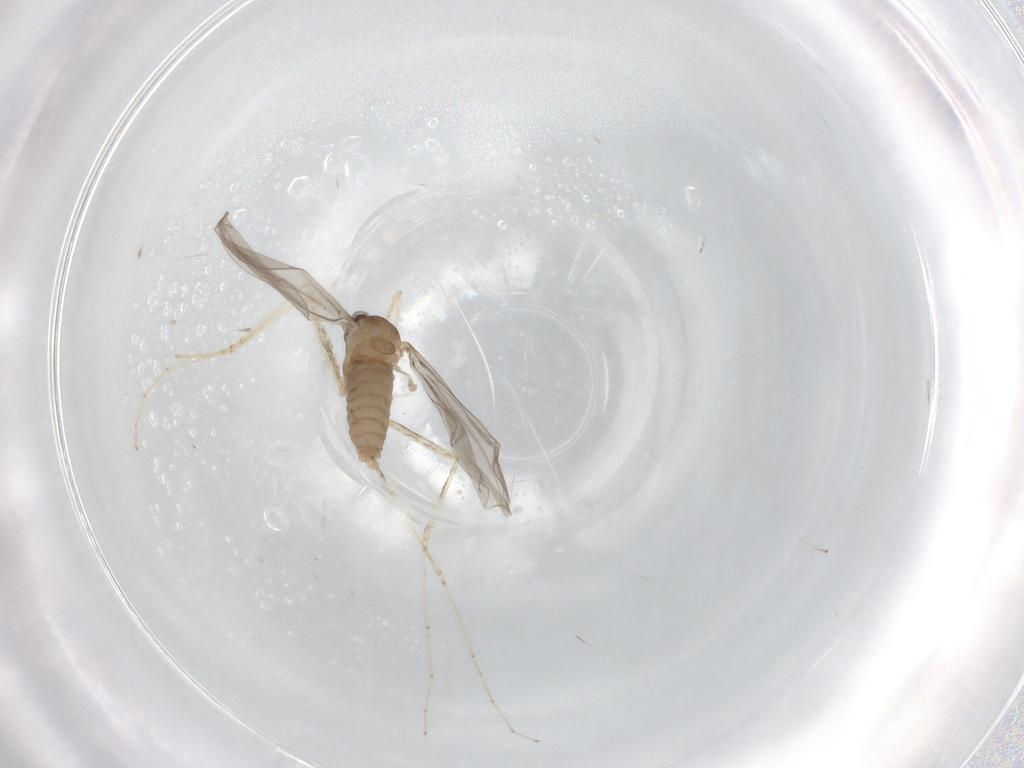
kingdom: Animalia
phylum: Arthropoda
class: Insecta
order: Diptera
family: Cecidomyiidae
